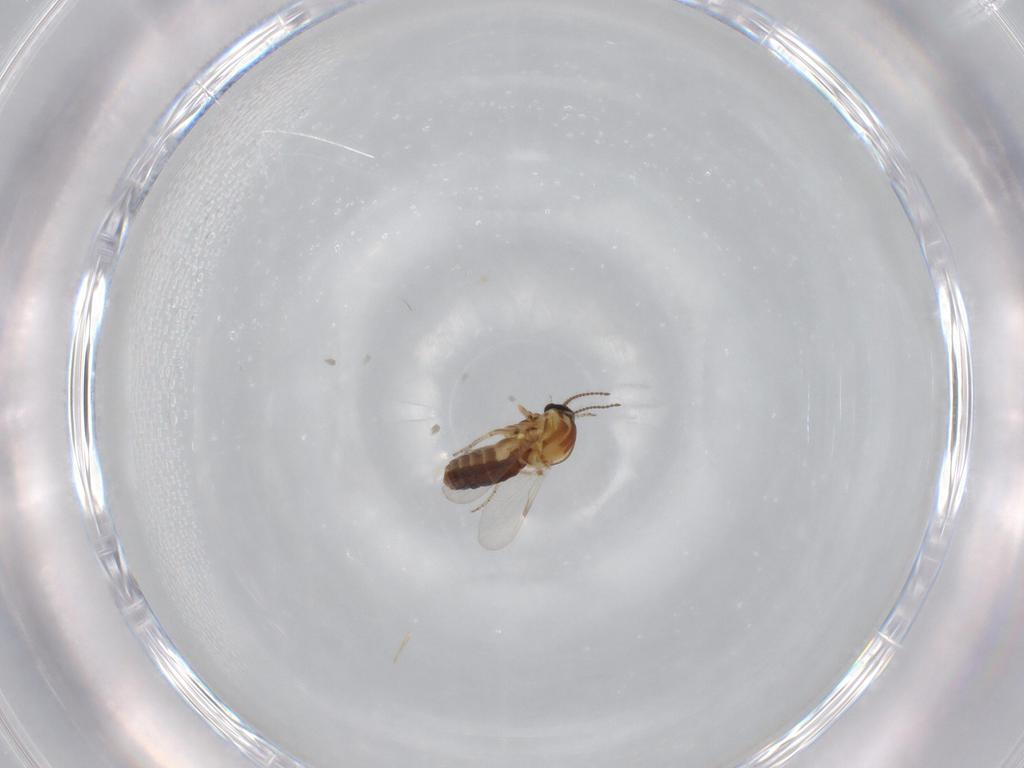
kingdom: Animalia
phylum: Arthropoda
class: Insecta
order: Diptera
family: Ceratopogonidae
